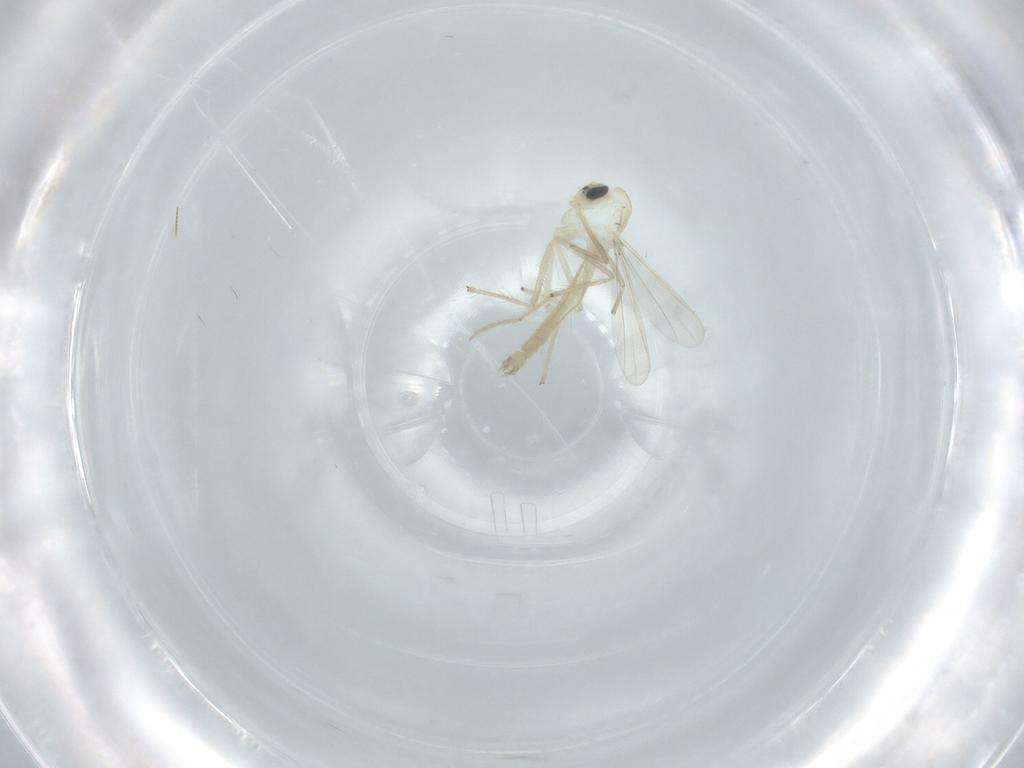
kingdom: Animalia
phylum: Arthropoda
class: Insecta
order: Diptera
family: Chironomidae
